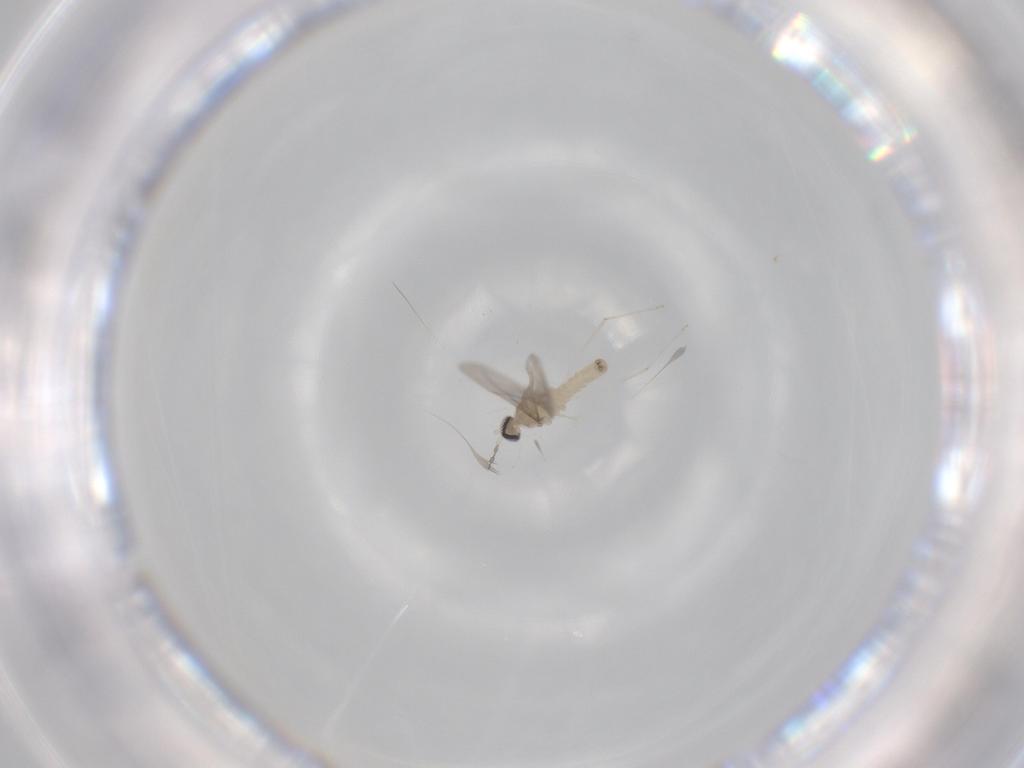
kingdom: Animalia
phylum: Arthropoda
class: Insecta
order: Diptera
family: Cecidomyiidae
